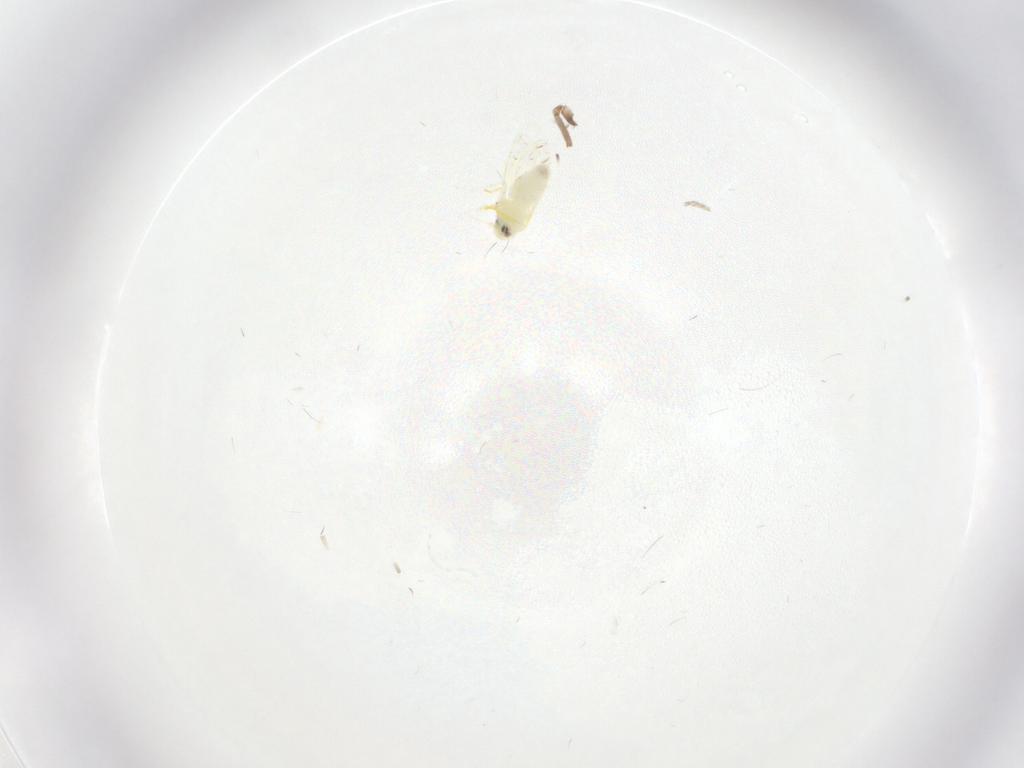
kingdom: Animalia
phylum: Arthropoda
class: Insecta
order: Hemiptera
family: Aleyrodidae
